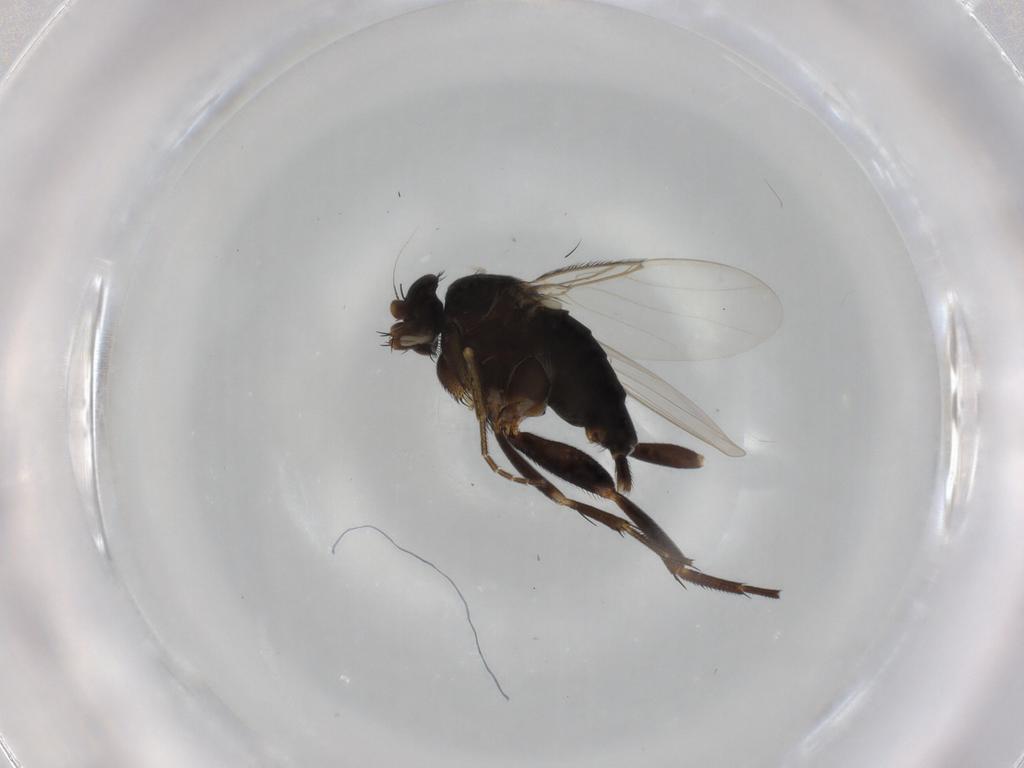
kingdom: Animalia
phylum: Arthropoda
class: Insecta
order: Diptera
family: Phoridae
